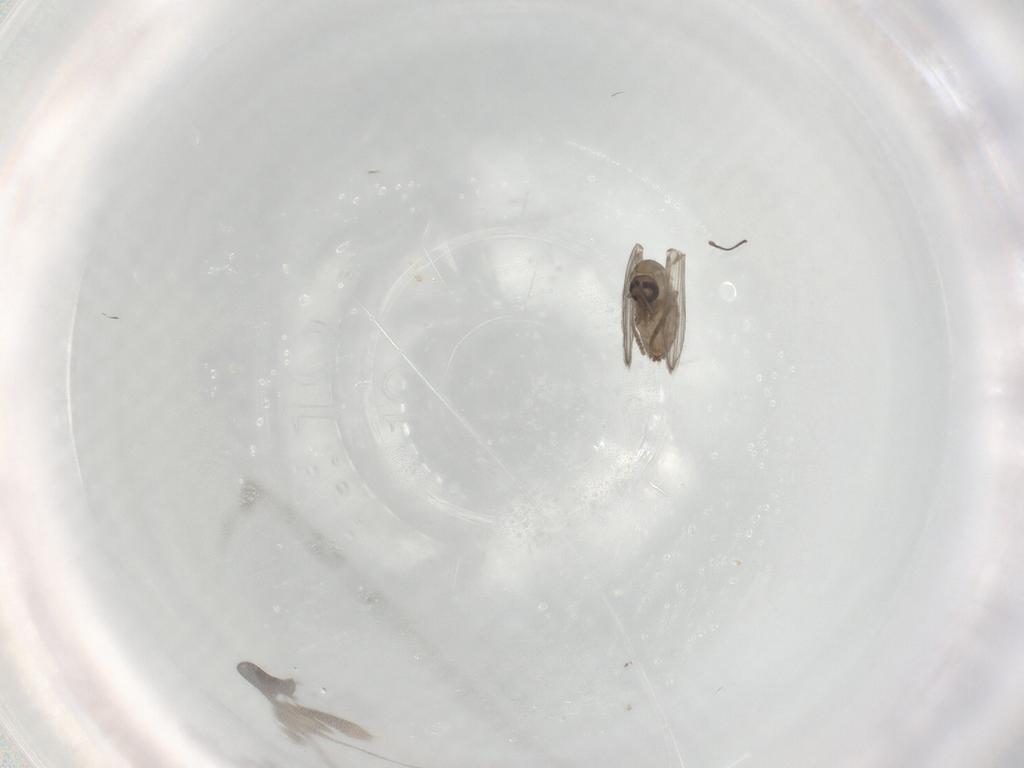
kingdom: Animalia
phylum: Arthropoda
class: Insecta
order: Diptera
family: Psychodidae
